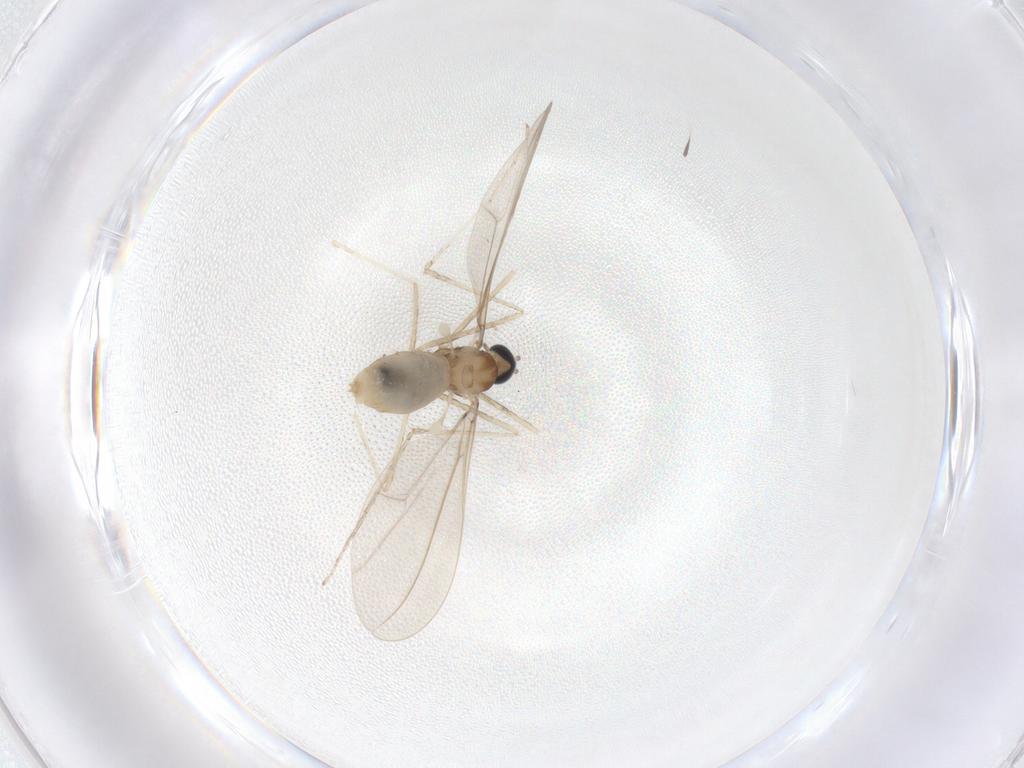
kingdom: Animalia
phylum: Arthropoda
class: Insecta
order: Diptera
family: Cecidomyiidae
